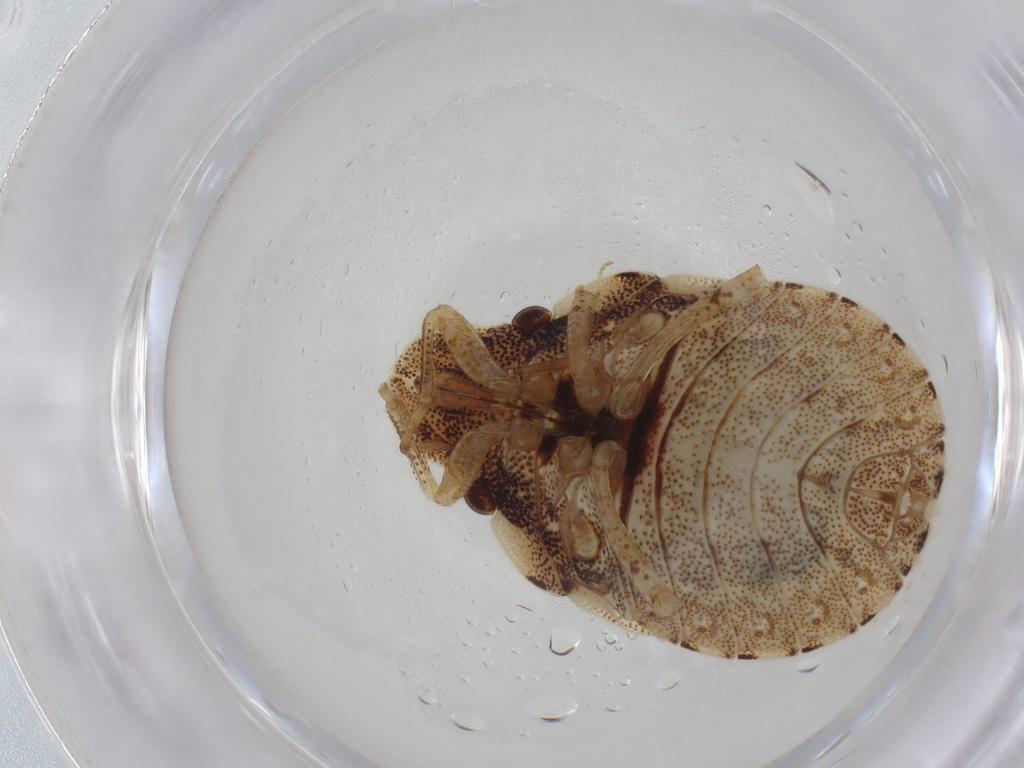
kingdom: Animalia
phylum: Arthropoda
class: Insecta
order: Hemiptera
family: Pentatomidae
